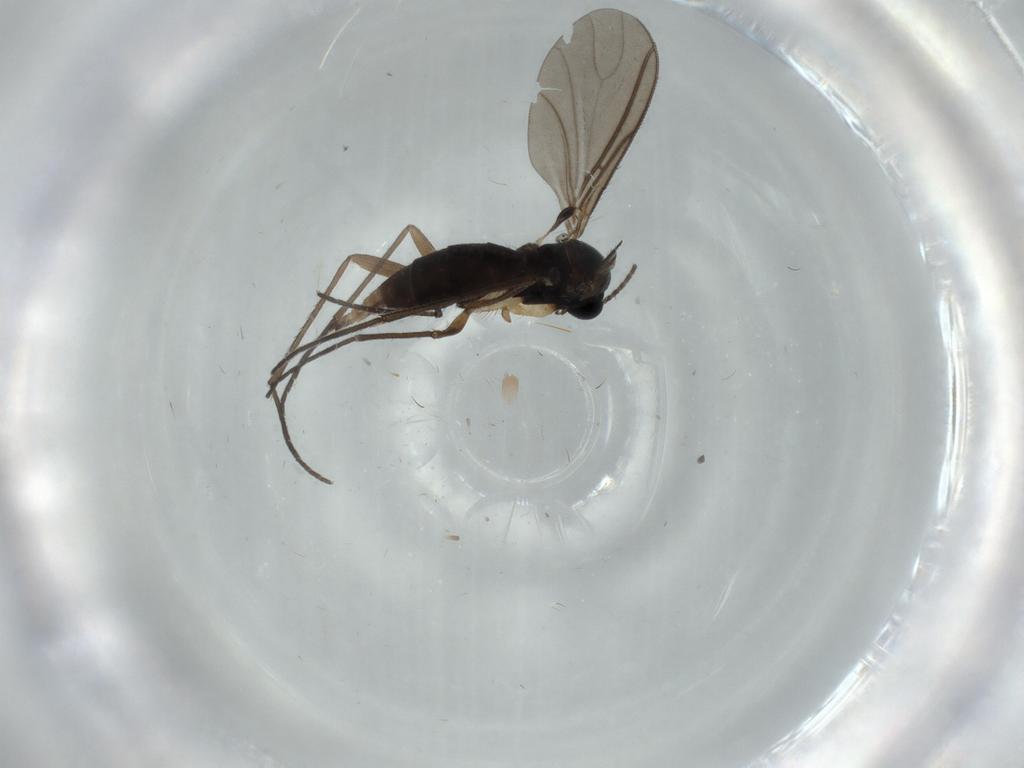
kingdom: Animalia
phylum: Arthropoda
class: Insecta
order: Diptera
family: Sciaridae
